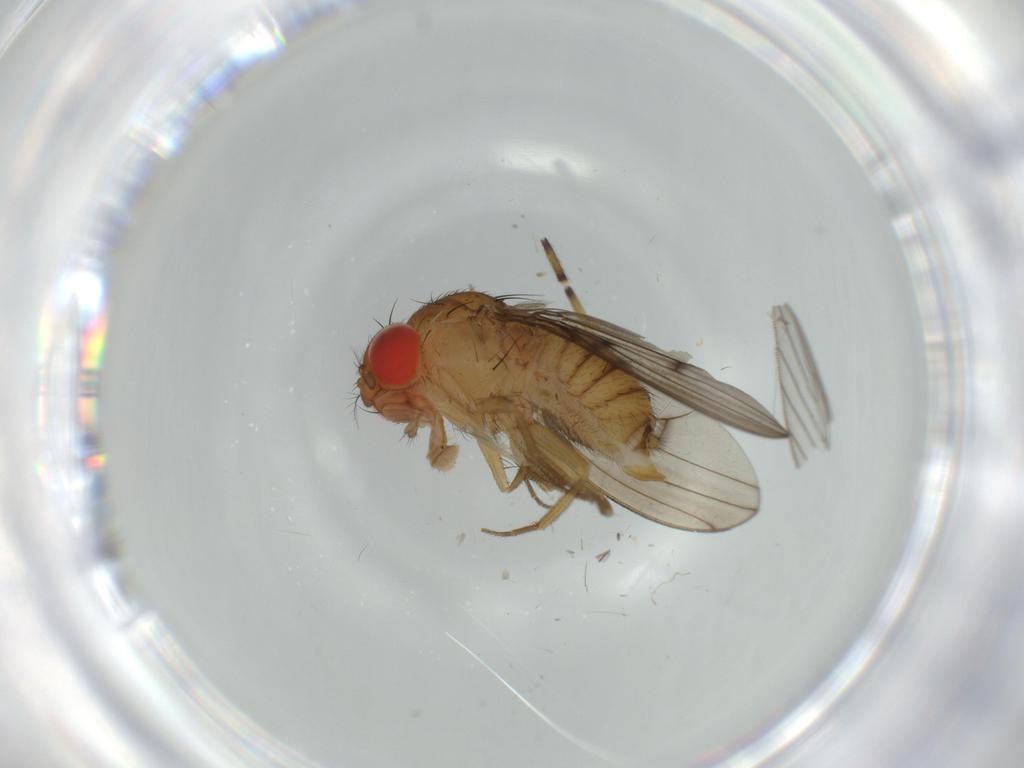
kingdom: Animalia
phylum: Arthropoda
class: Insecta
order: Diptera
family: Drosophilidae
